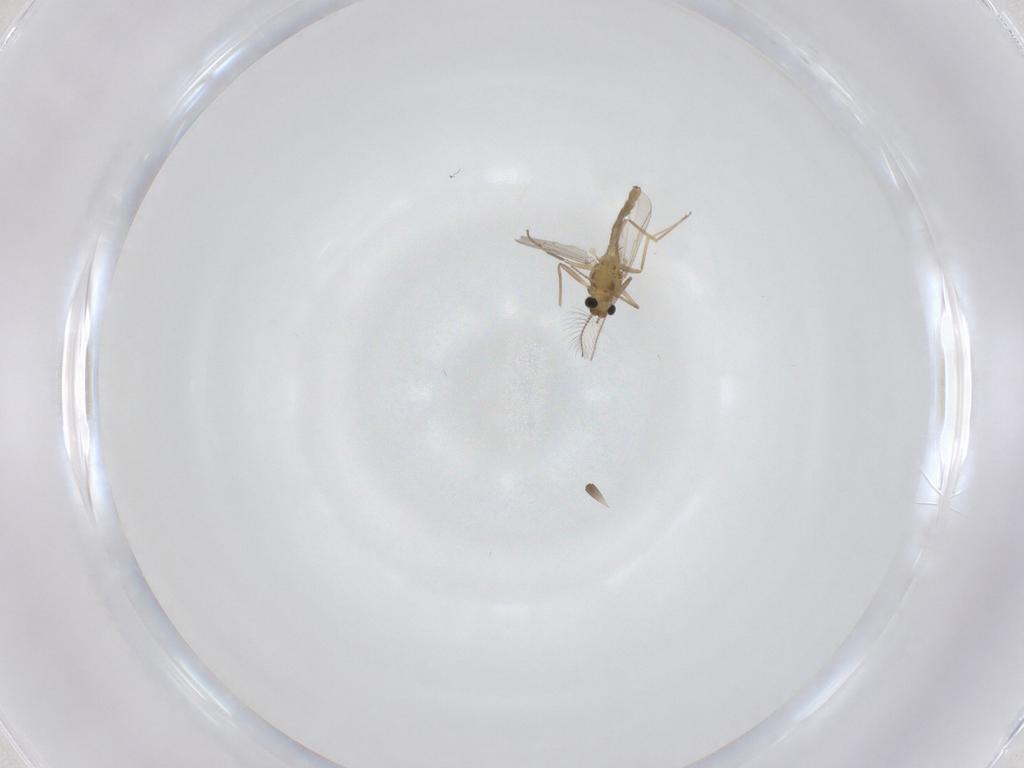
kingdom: Animalia
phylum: Arthropoda
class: Insecta
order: Diptera
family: Chironomidae
